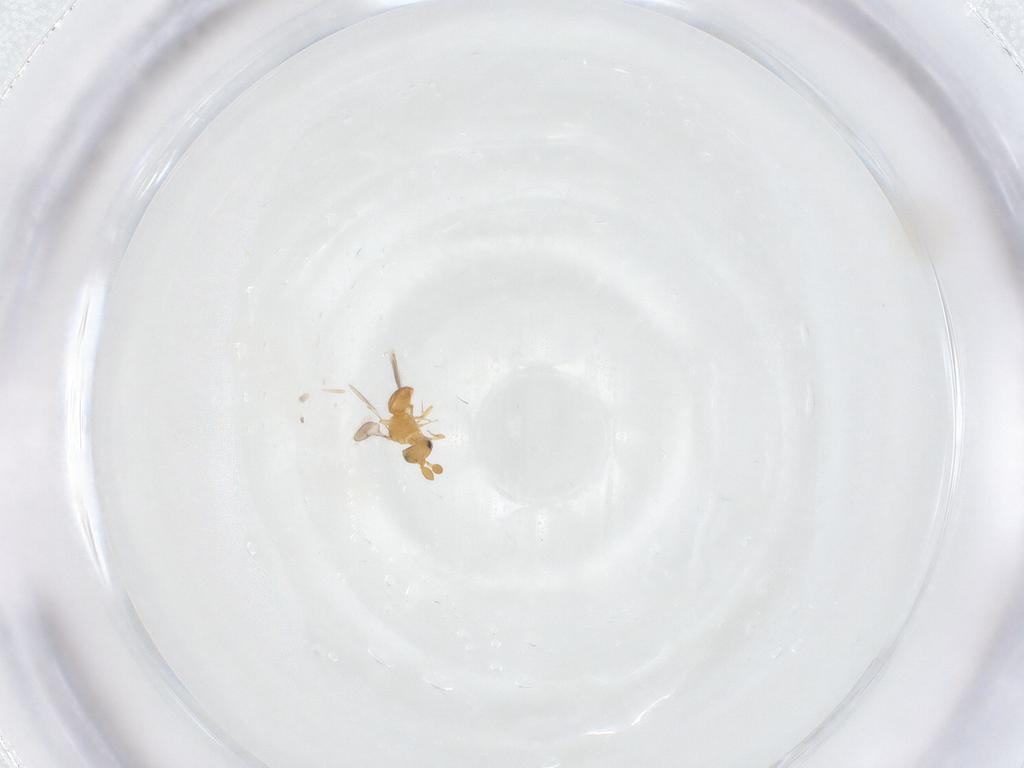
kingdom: Animalia
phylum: Arthropoda
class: Insecta
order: Hymenoptera
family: Scelionidae
